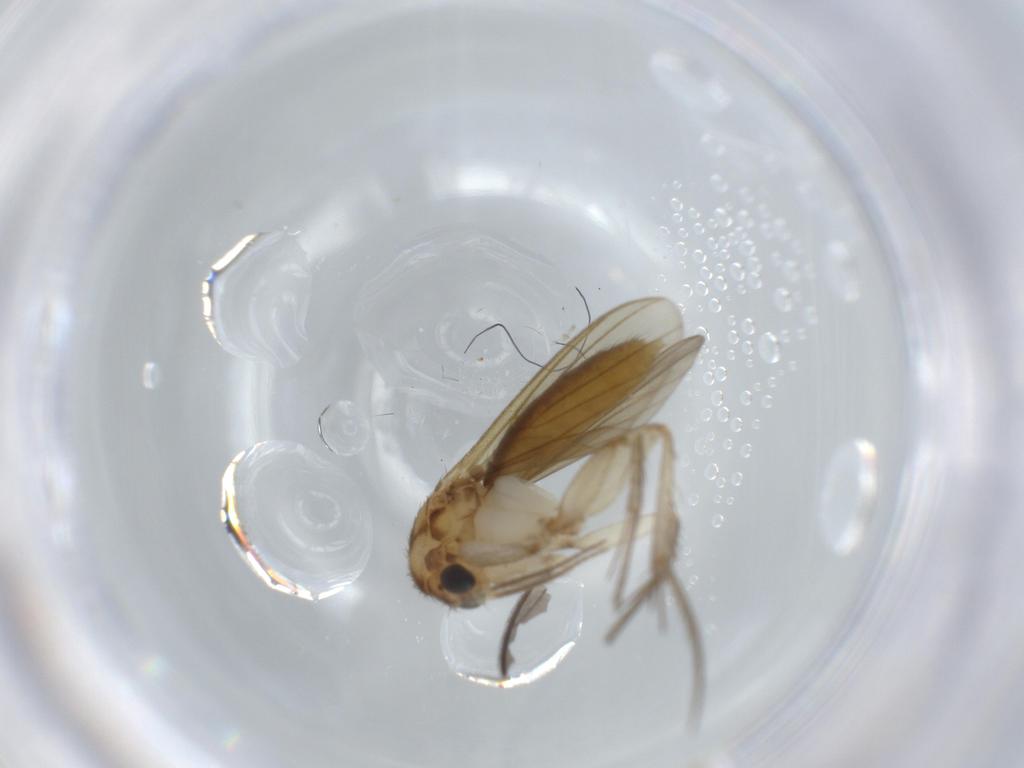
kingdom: Animalia
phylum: Arthropoda
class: Insecta
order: Diptera
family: Mycetophilidae
